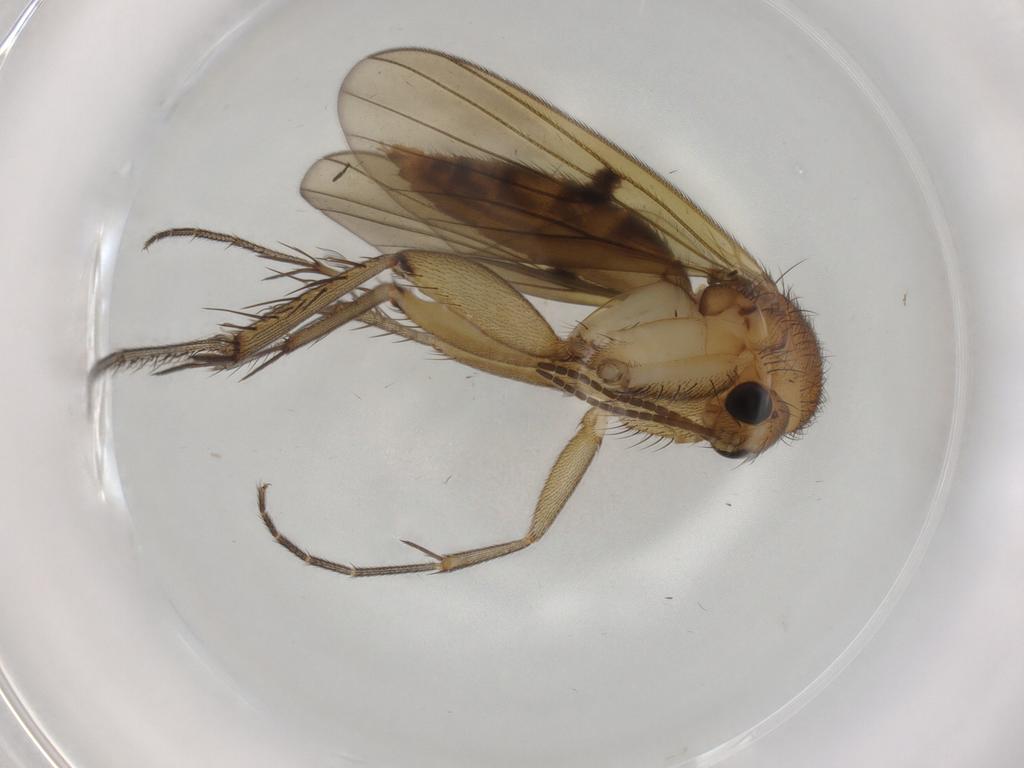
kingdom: Animalia
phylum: Arthropoda
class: Insecta
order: Diptera
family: Mycetophilidae
